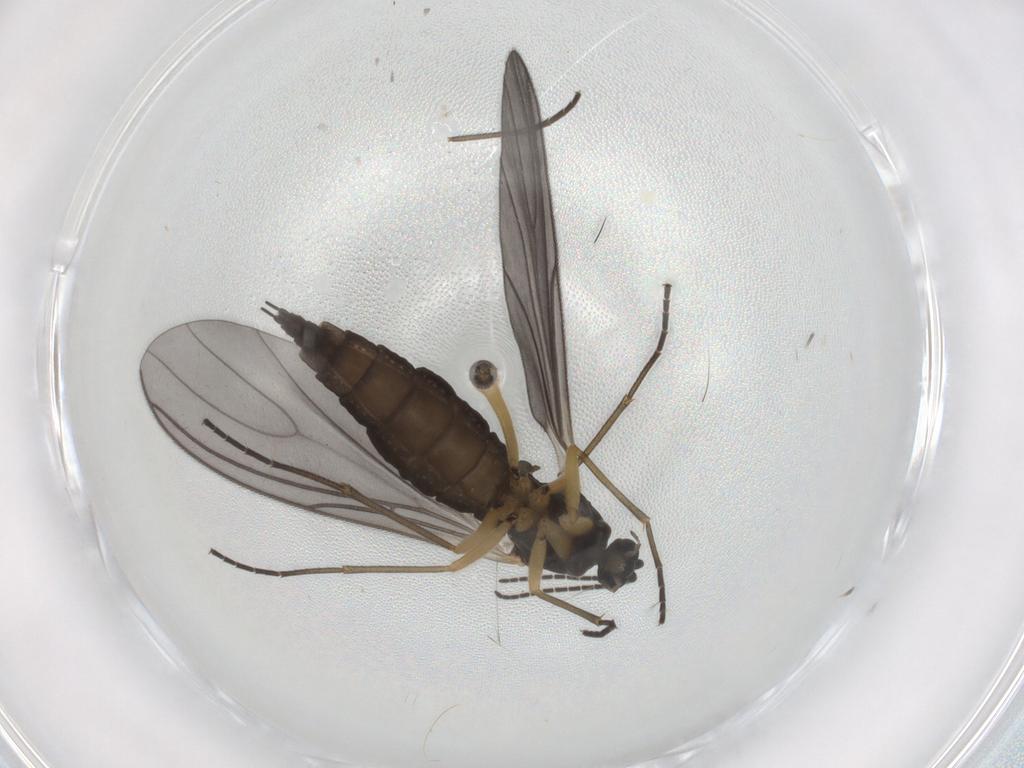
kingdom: Animalia
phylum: Arthropoda
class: Insecta
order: Diptera
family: Sciaridae
